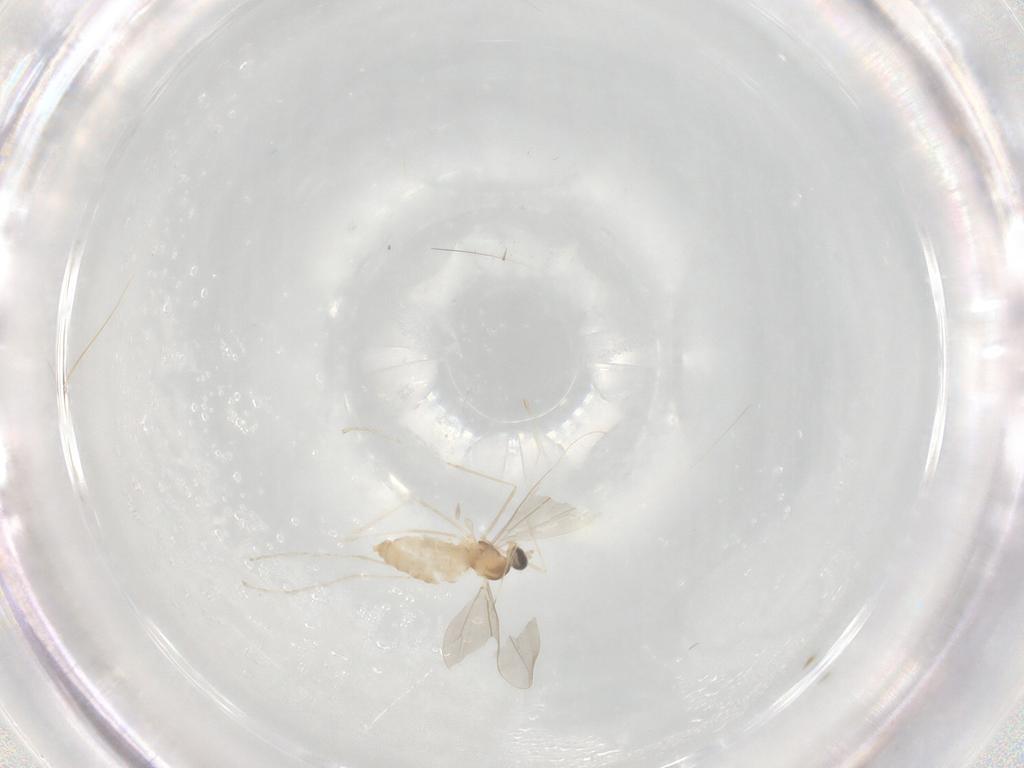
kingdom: Animalia
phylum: Arthropoda
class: Insecta
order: Diptera
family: Cecidomyiidae
